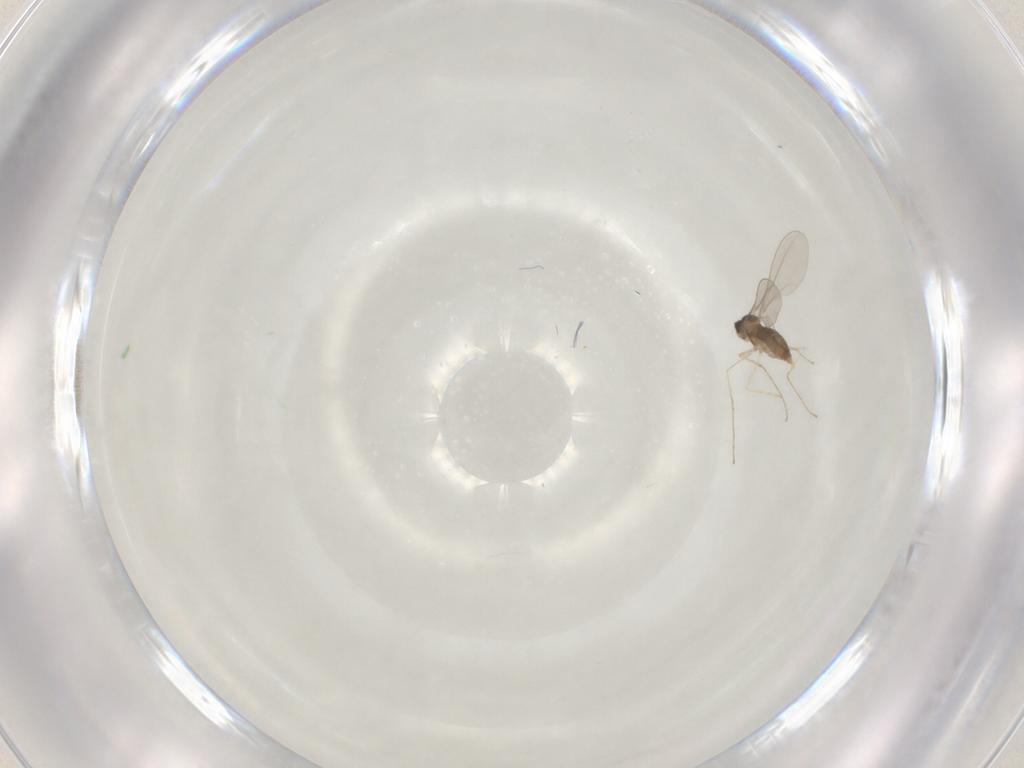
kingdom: Animalia
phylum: Arthropoda
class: Insecta
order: Diptera
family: Cecidomyiidae
